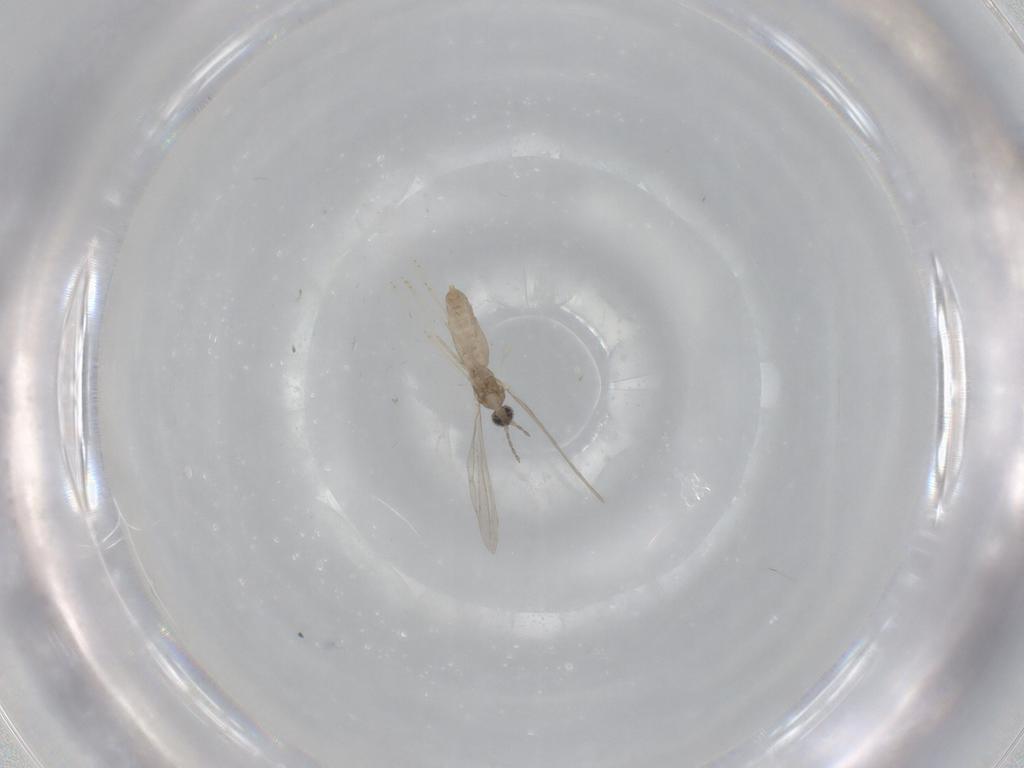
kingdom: Animalia
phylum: Arthropoda
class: Insecta
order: Diptera
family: Cecidomyiidae
